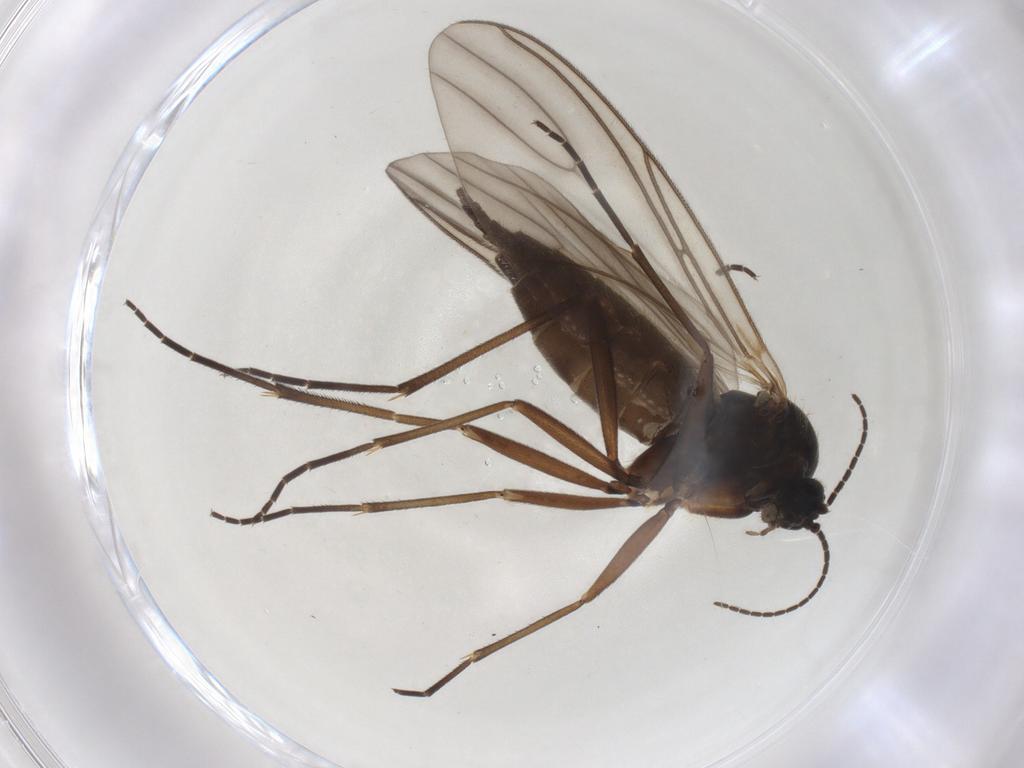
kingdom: Animalia
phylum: Arthropoda
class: Insecta
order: Diptera
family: Sciaridae
